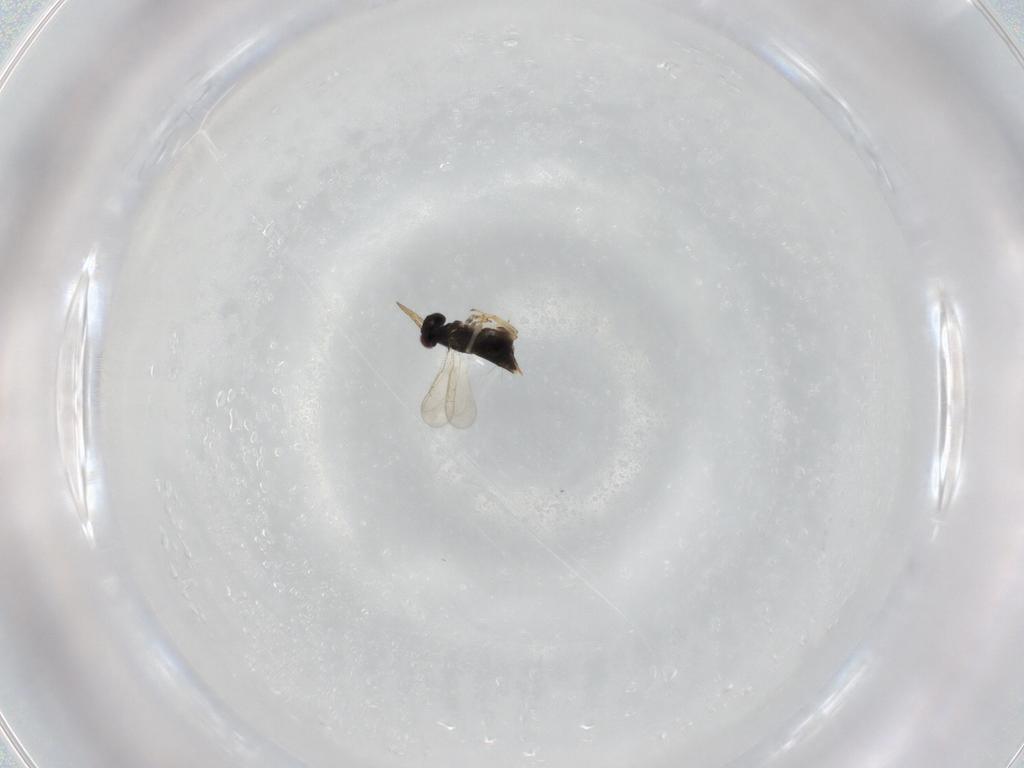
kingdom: Animalia
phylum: Arthropoda
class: Insecta
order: Hymenoptera
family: Aphelinidae
